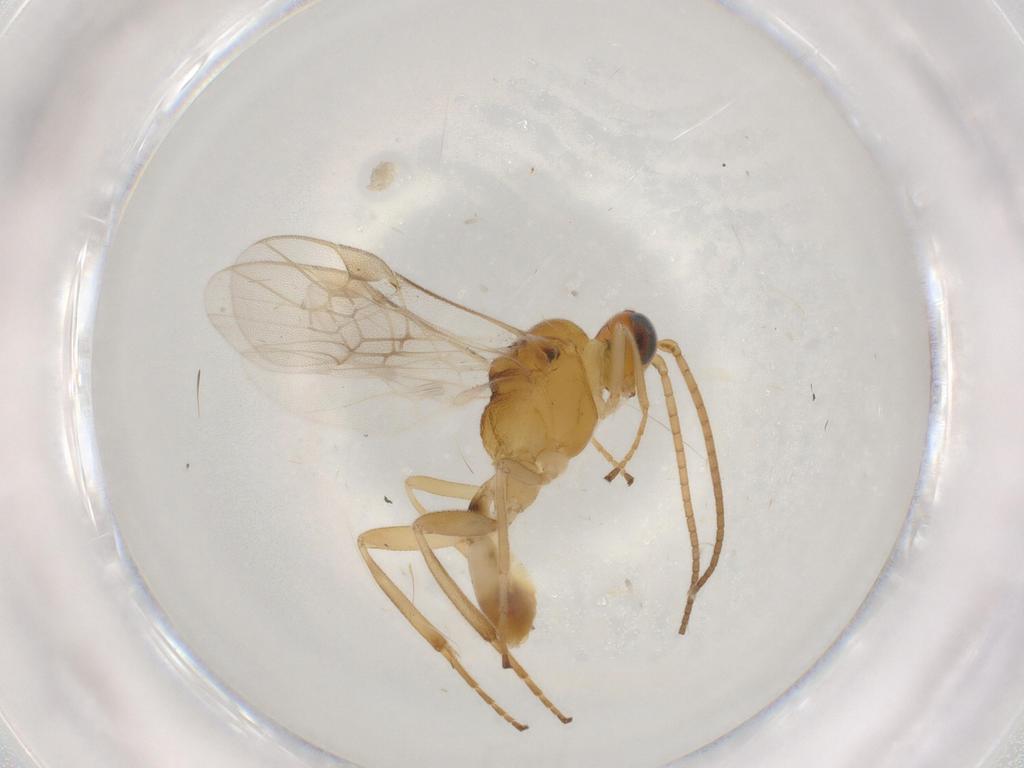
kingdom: Animalia
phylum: Arthropoda
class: Insecta
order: Hymenoptera
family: Braconidae
